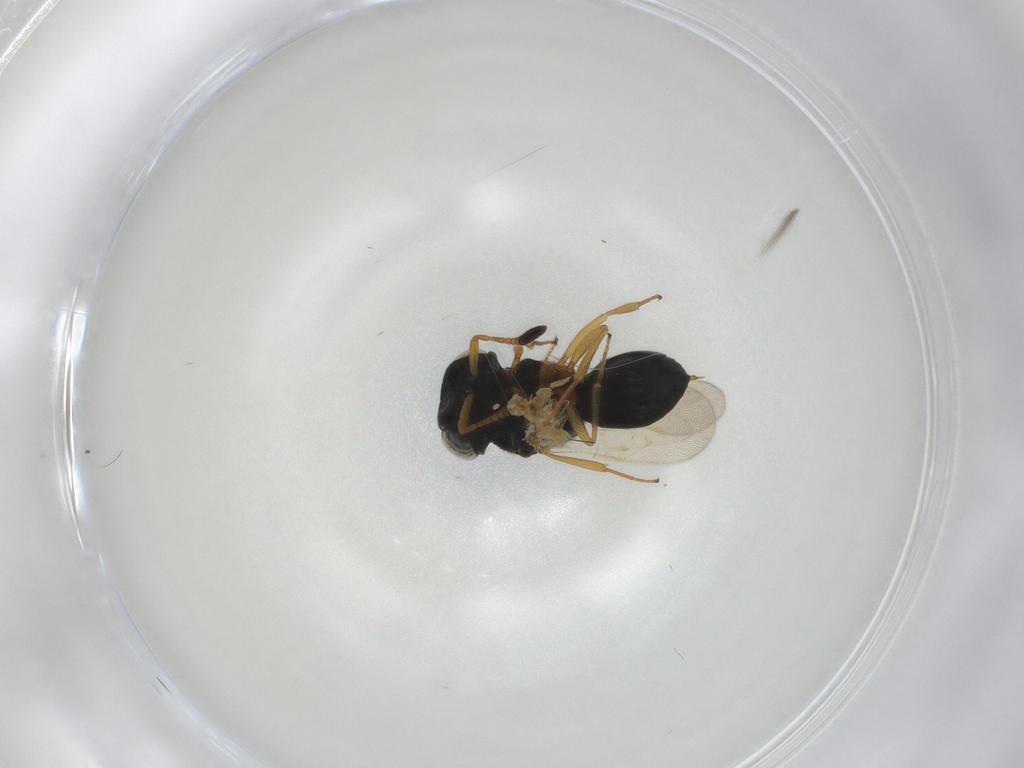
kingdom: Animalia
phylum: Arthropoda
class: Insecta
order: Hymenoptera
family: Scelionidae
